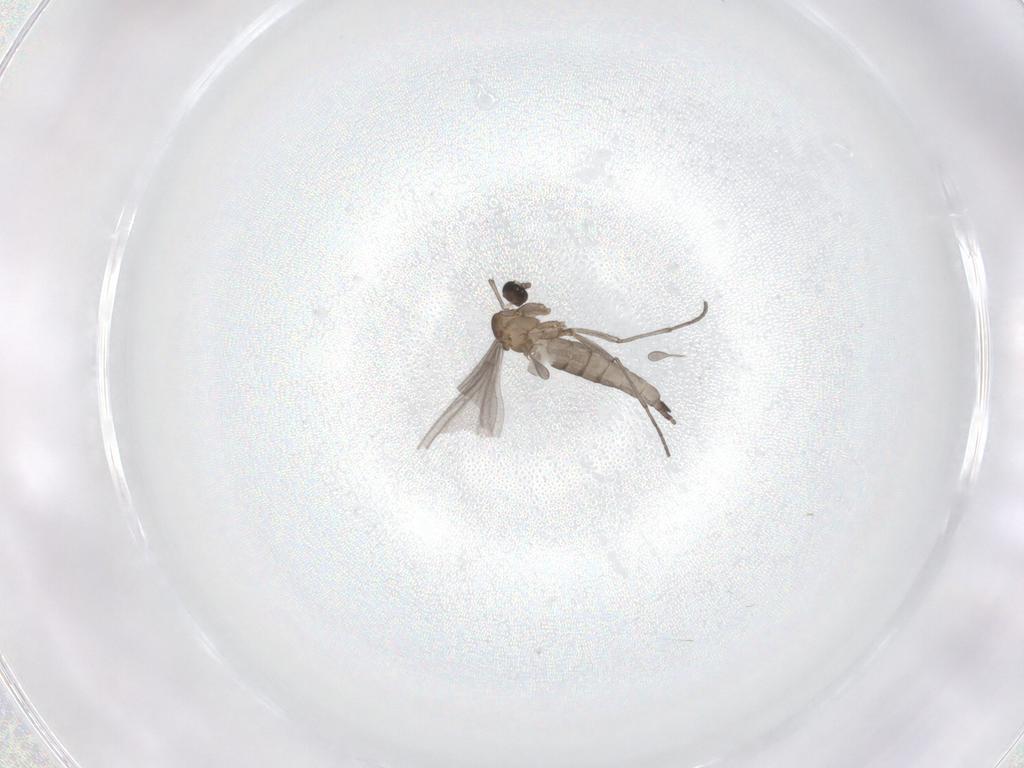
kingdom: Animalia
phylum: Arthropoda
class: Insecta
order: Diptera
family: Sciaridae
